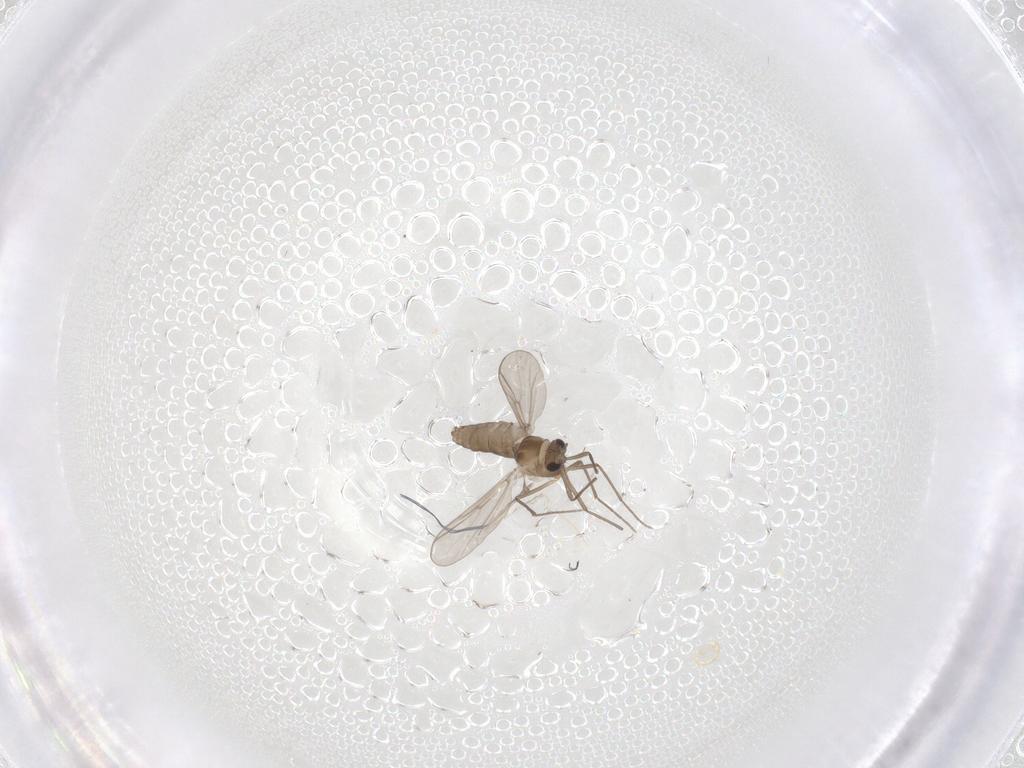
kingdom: Animalia
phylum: Arthropoda
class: Insecta
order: Diptera
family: Chironomidae
